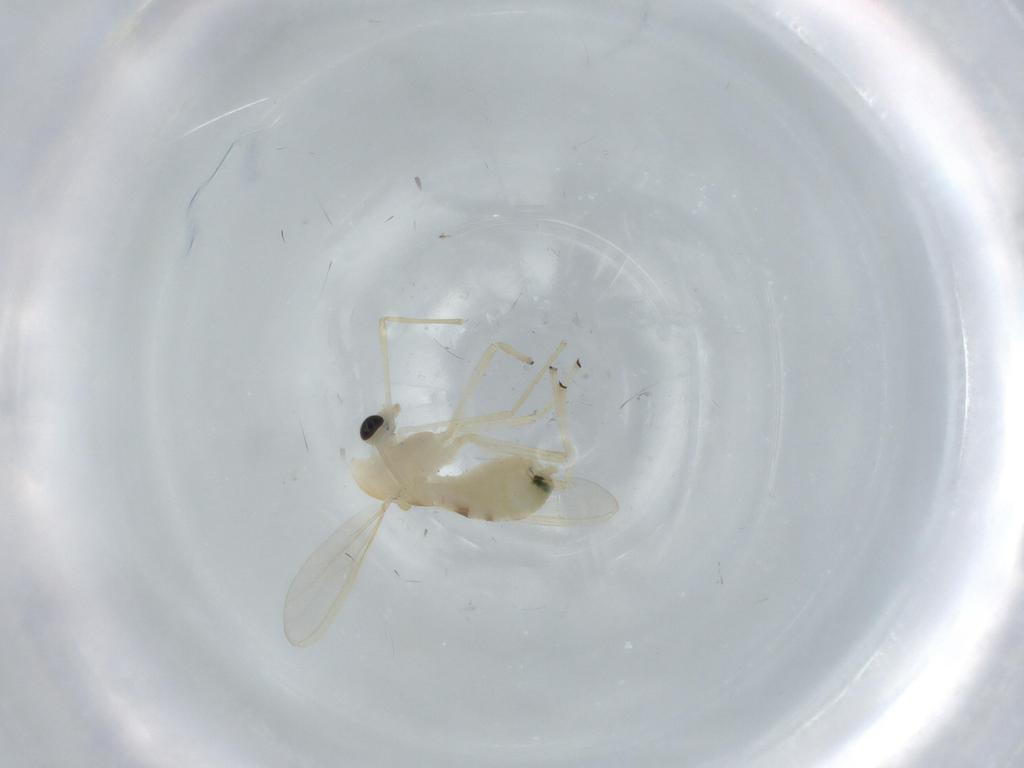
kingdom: Animalia
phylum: Arthropoda
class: Insecta
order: Diptera
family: Chironomidae
